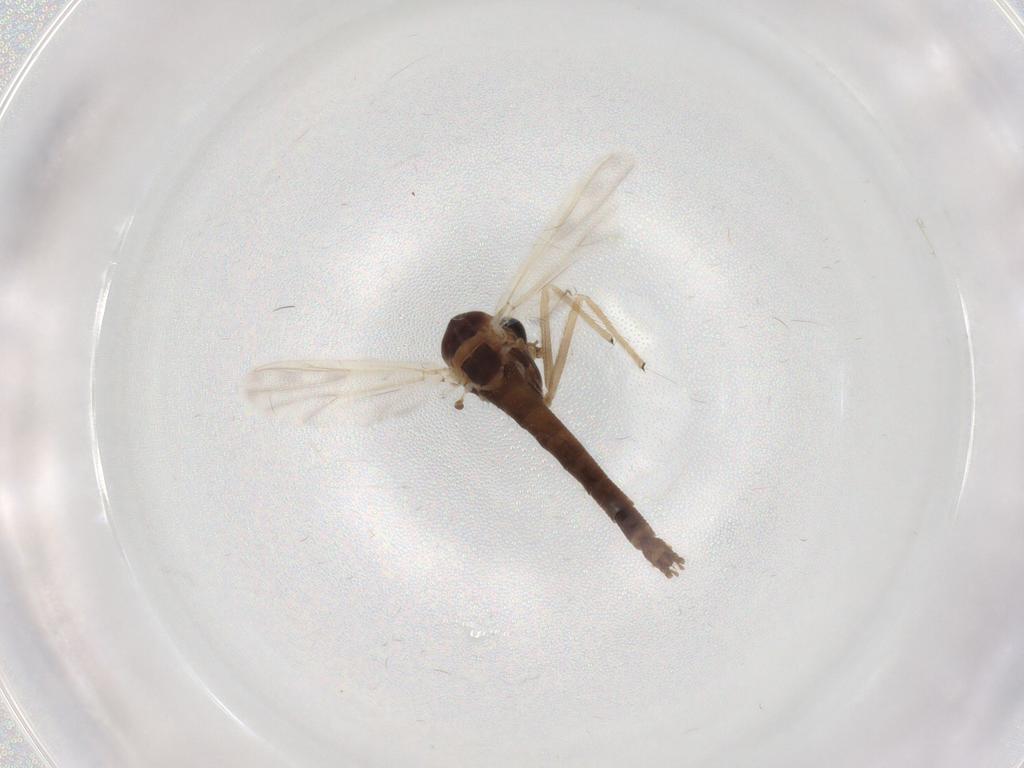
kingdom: Animalia
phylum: Arthropoda
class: Insecta
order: Diptera
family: Chironomidae
